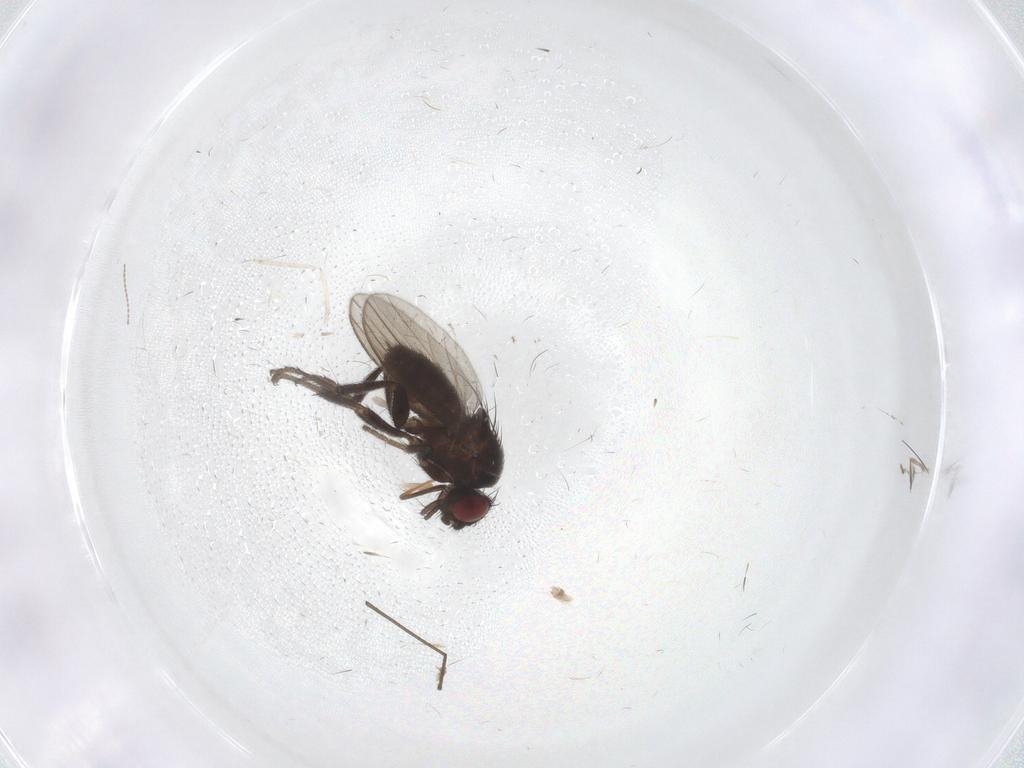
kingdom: Animalia
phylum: Arthropoda
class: Insecta
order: Diptera
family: Milichiidae
